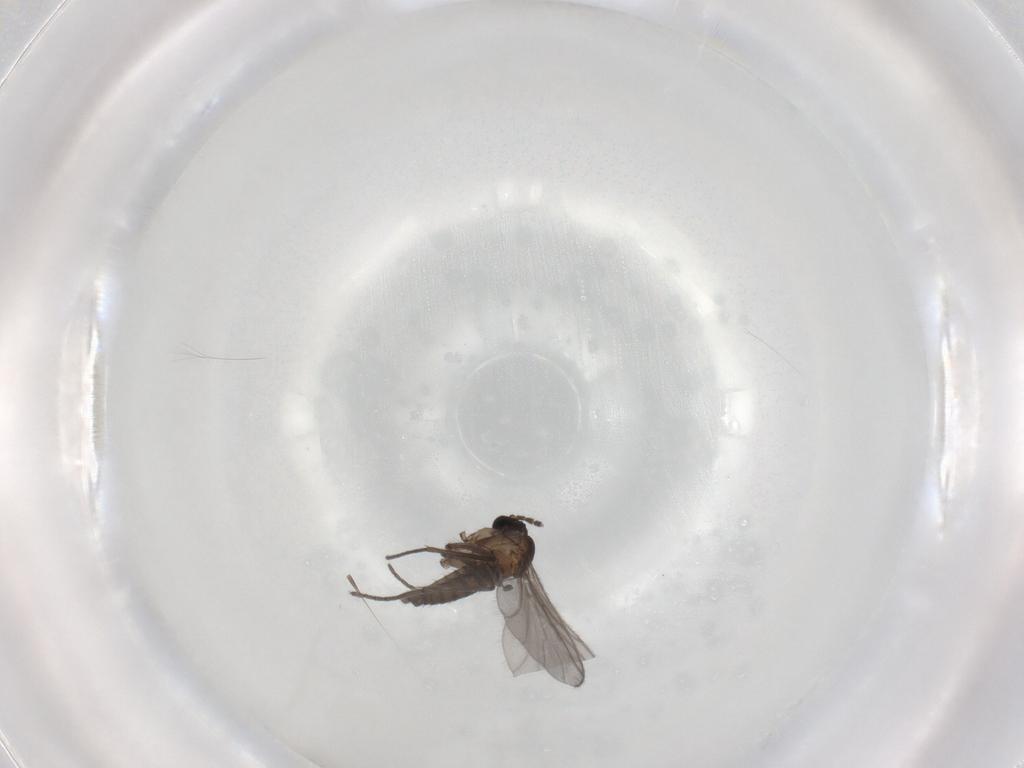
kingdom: Animalia
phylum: Arthropoda
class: Insecta
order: Diptera
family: Sciaridae
